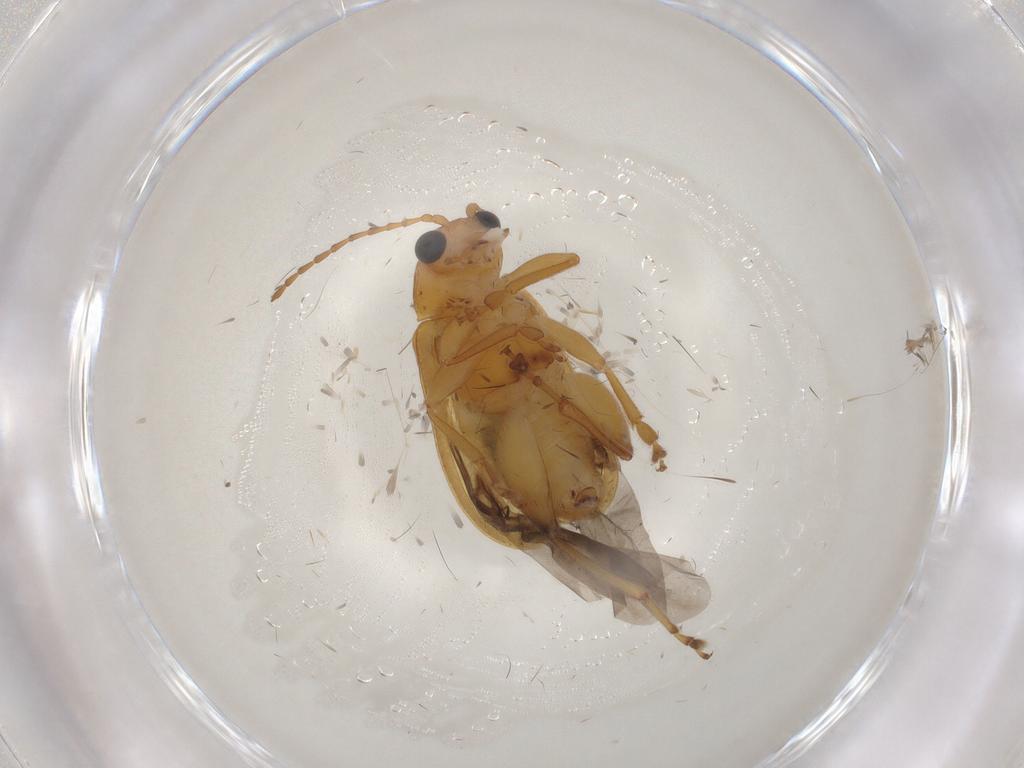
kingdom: Animalia
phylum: Arthropoda
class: Insecta
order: Coleoptera
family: Chrysomelidae
